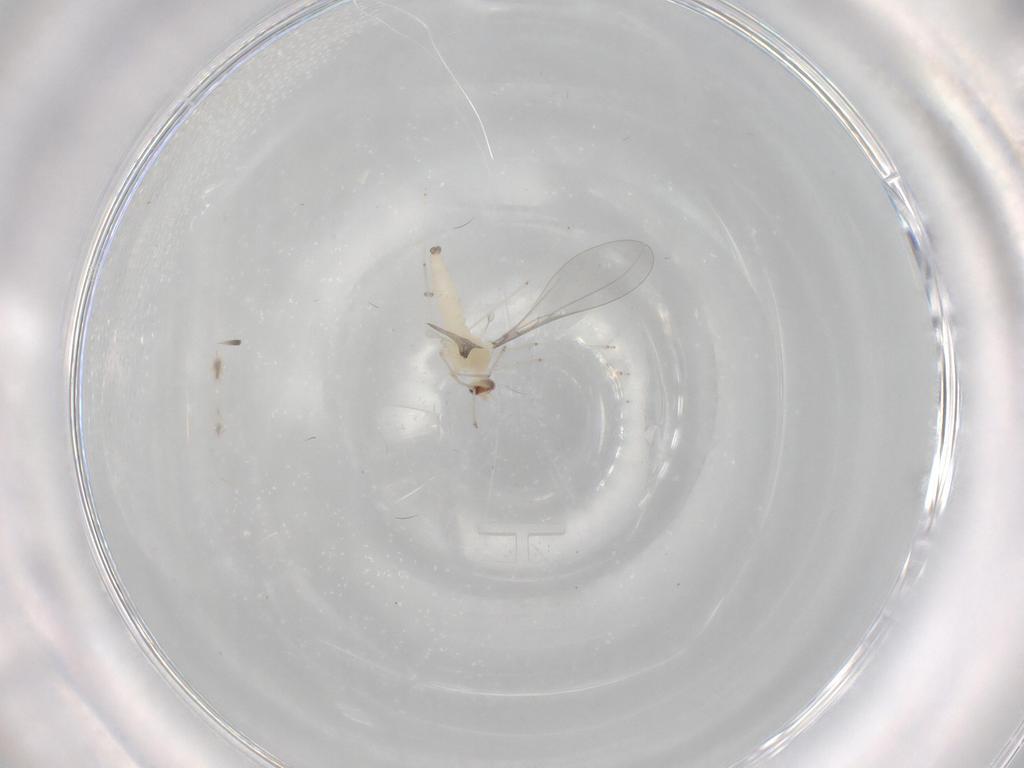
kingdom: Animalia
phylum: Arthropoda
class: Insecta
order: Diptera
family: Cecidomyiidae
